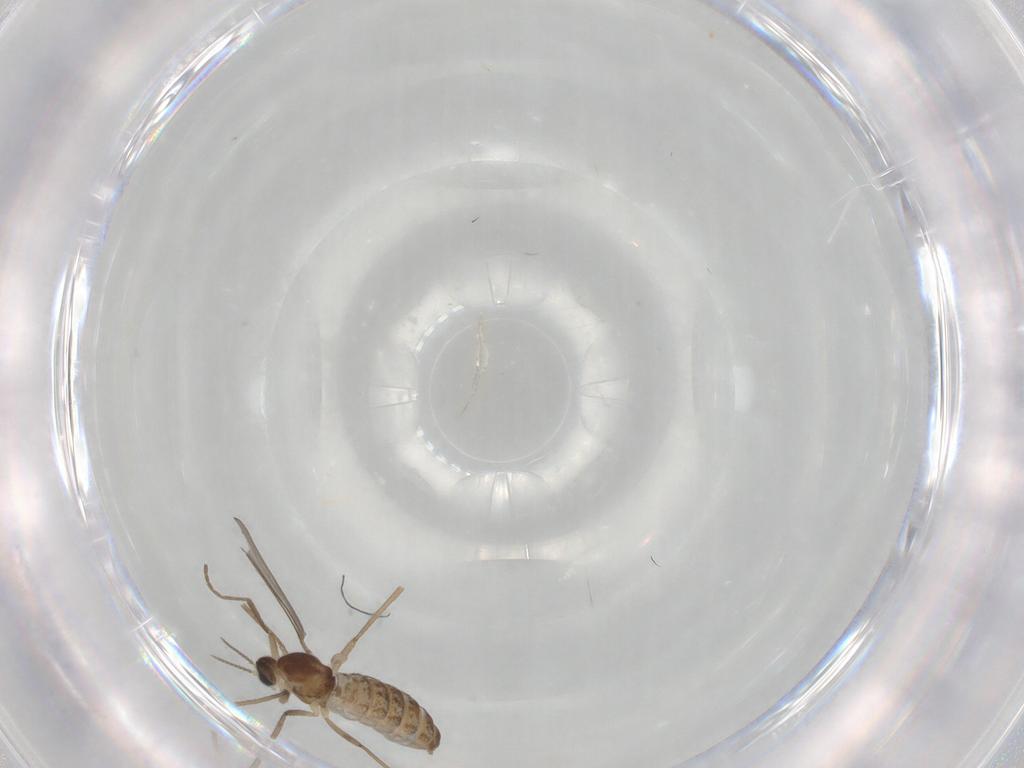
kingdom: Animalia
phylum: Arthropoda
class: Insecta
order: Diptera
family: Cecidomyiidae
